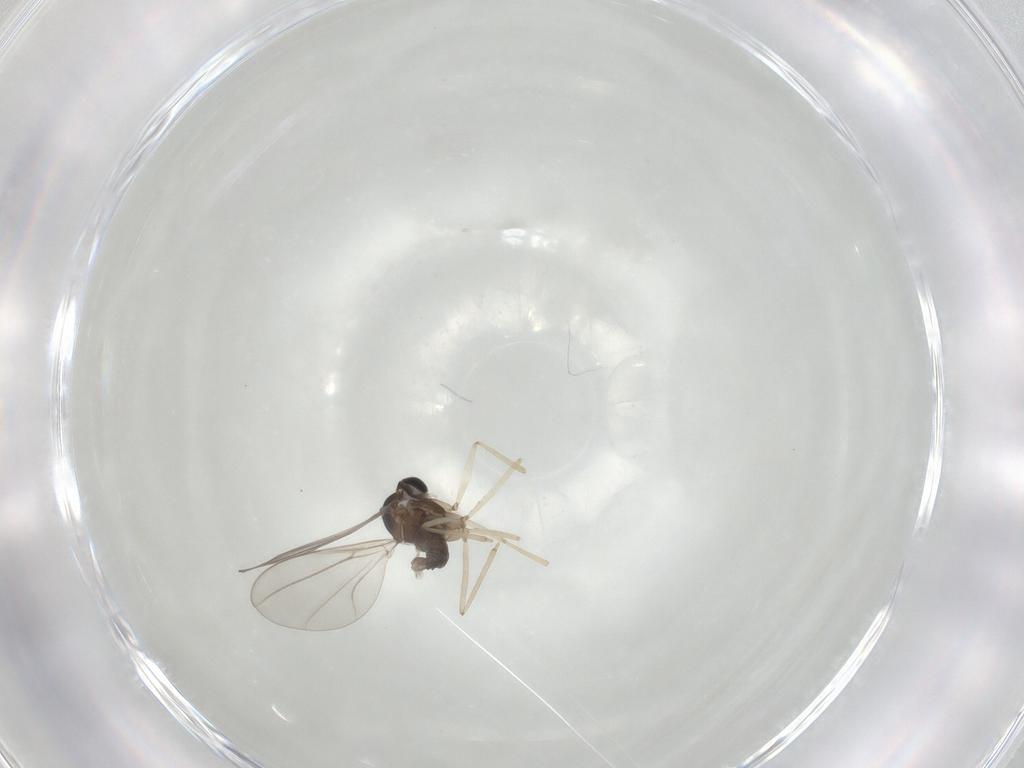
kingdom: Animalia
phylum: Arthropoda
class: Insecta
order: Diptera
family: Cecidomyiidae
